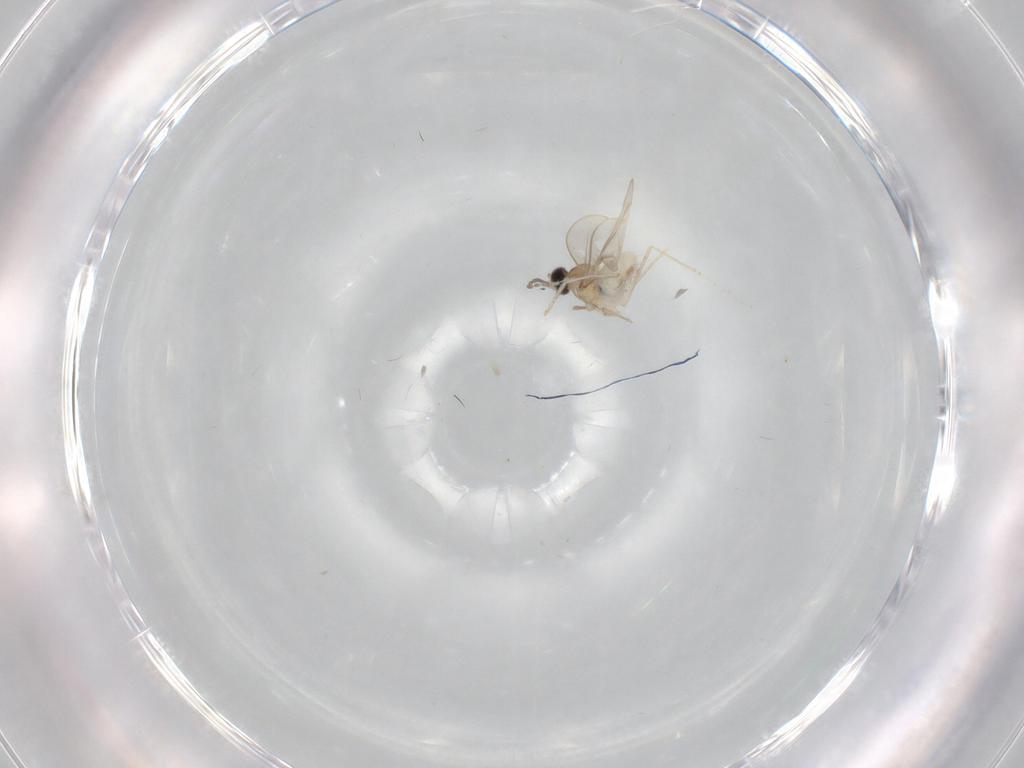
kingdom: Animalia
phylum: Arthropoda
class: Insecta
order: Diptera
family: Cecidomyiidae
